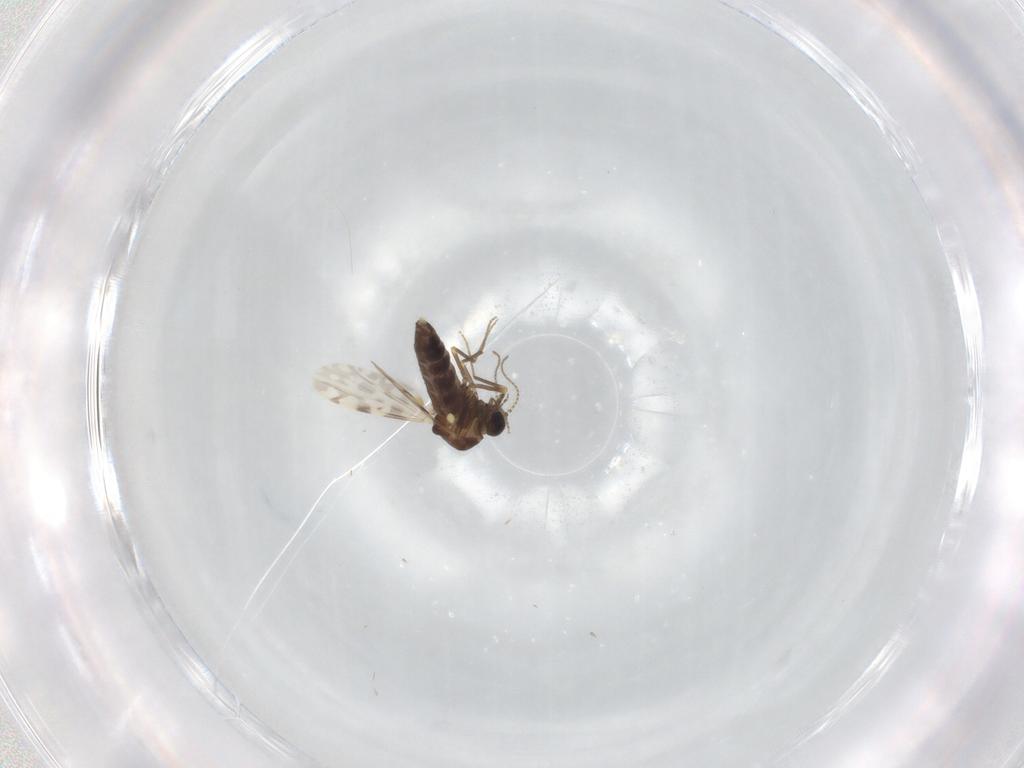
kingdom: Animalia
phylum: Arthropoda
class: Insecta
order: Diptera
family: Ceratopogonidae
